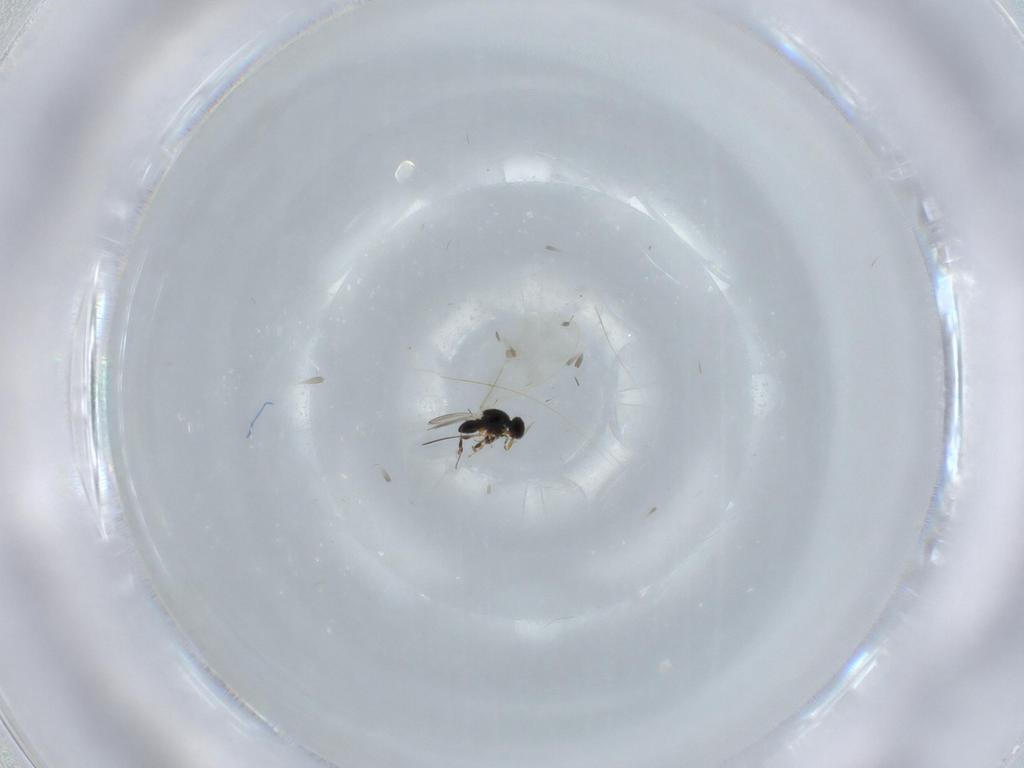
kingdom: Animalia
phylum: Arthropoda
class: Insecta
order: Hymenoptera
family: Platygastridae
